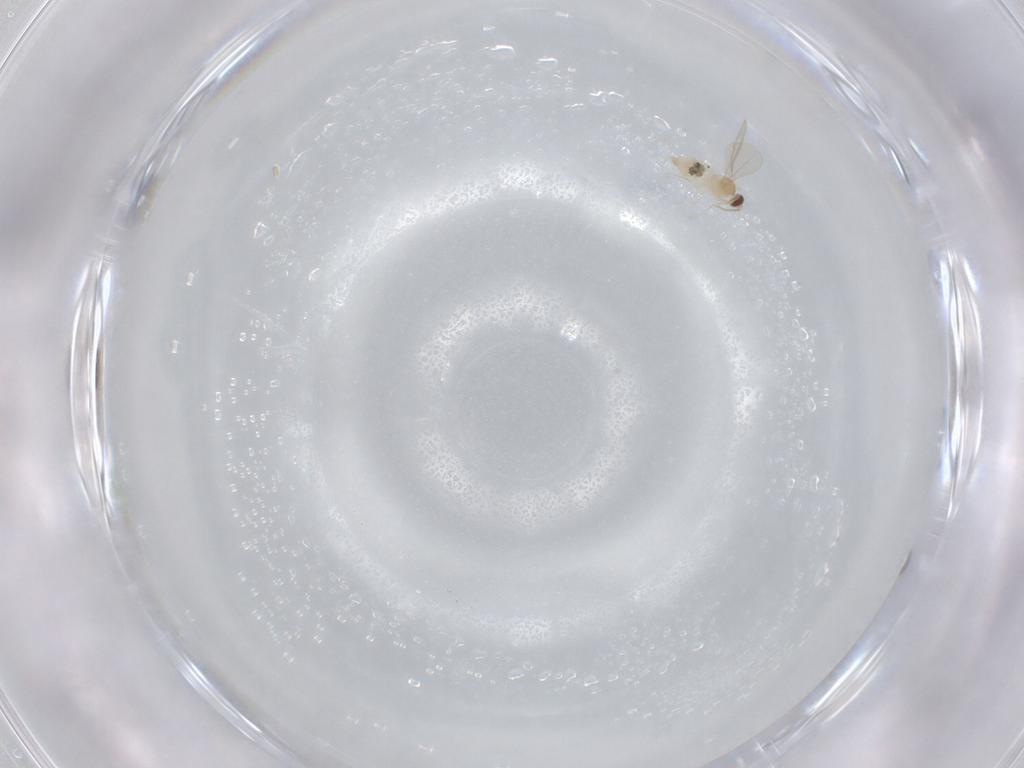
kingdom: Animalia
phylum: Arthropoda
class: Insecta
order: Diptera
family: Cecidomyiidae
